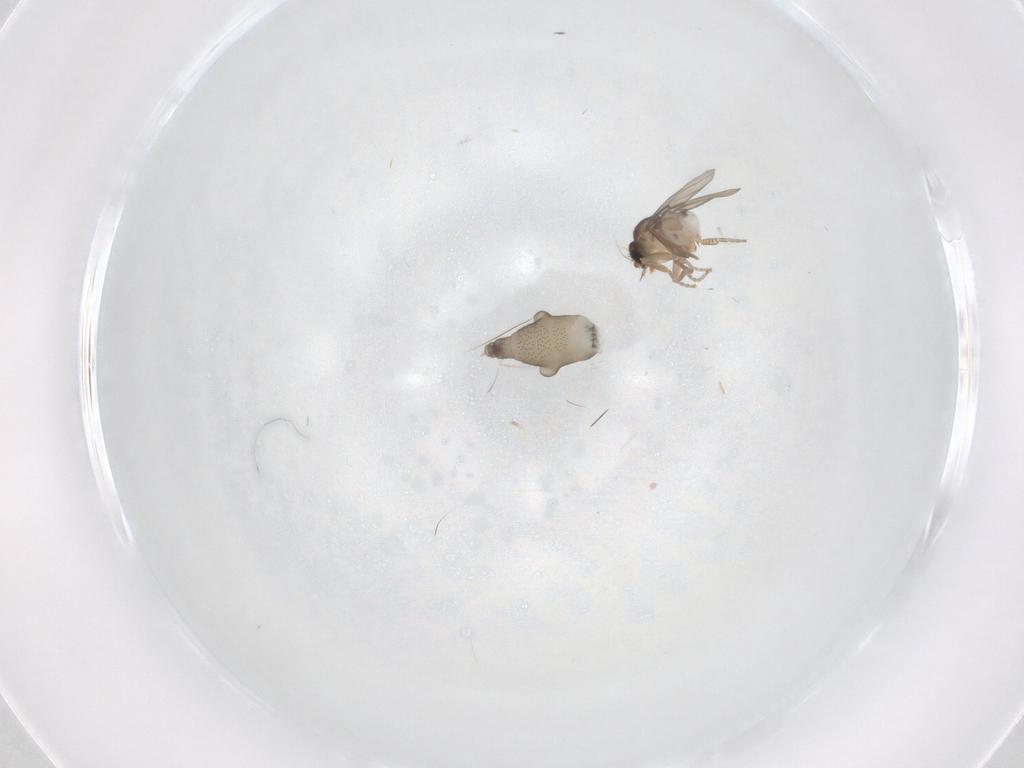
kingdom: Animalia
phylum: Arthropoda
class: Insecta
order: Diptera
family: Phoridae
